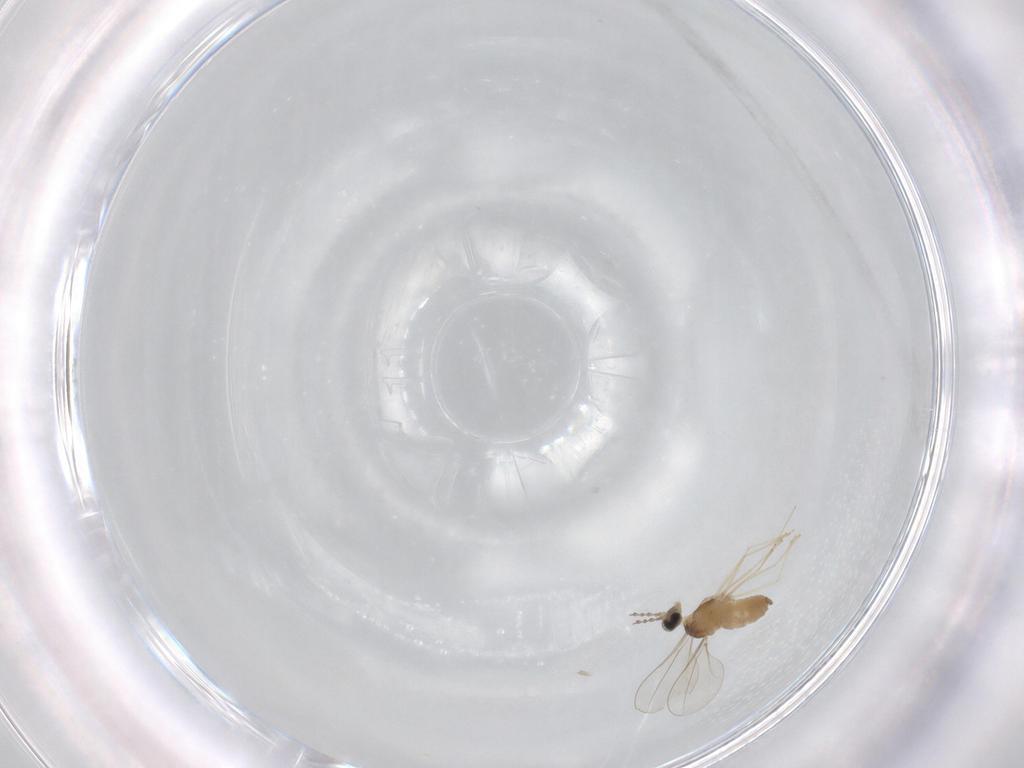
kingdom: Animalia
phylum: Arthropoda
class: Insecta
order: Diptera
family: Cecidomyiidae
